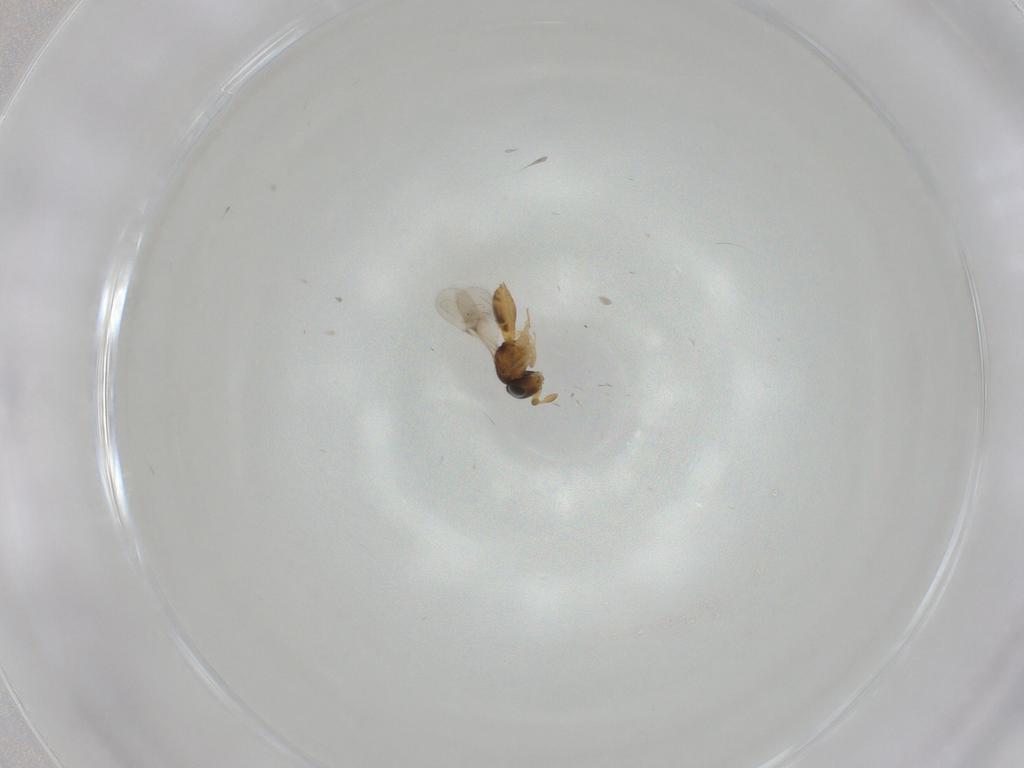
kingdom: Animalia
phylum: Arthropoda
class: Insecta
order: Hymenoptera
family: Scelionidae
